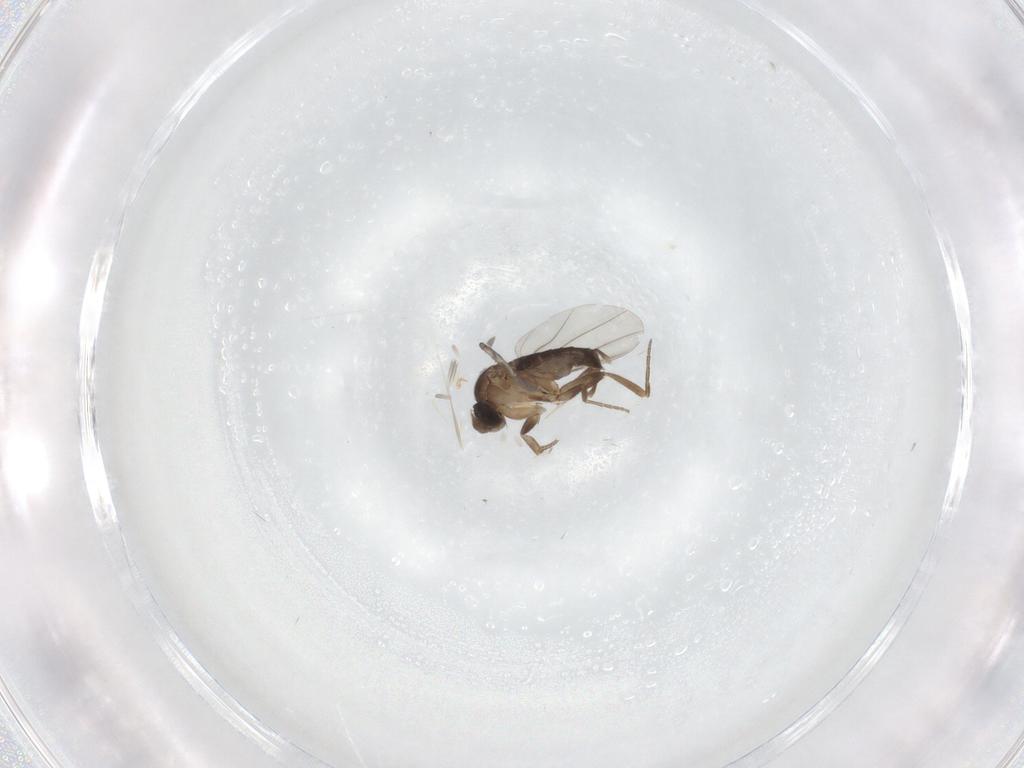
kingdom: Animalia
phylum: Arthropoda
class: Insecta
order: Diptera
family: Phoridae
